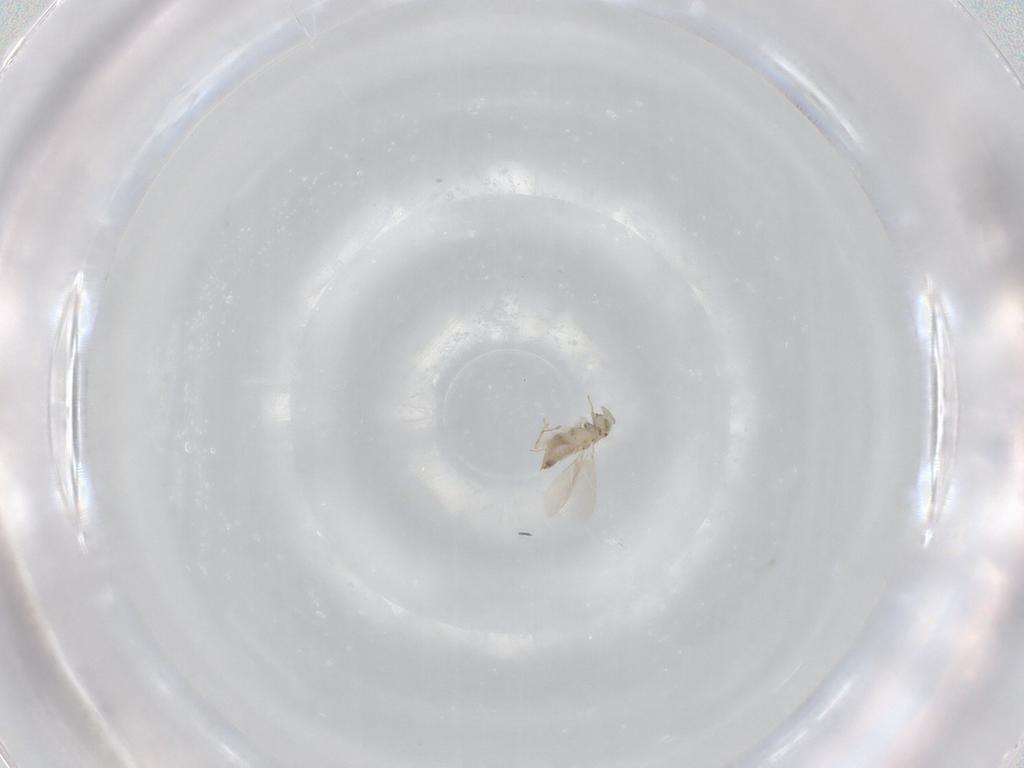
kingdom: Animalia
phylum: Arthropoda
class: Insecta
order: Hymenoptera
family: Aphelinidae
